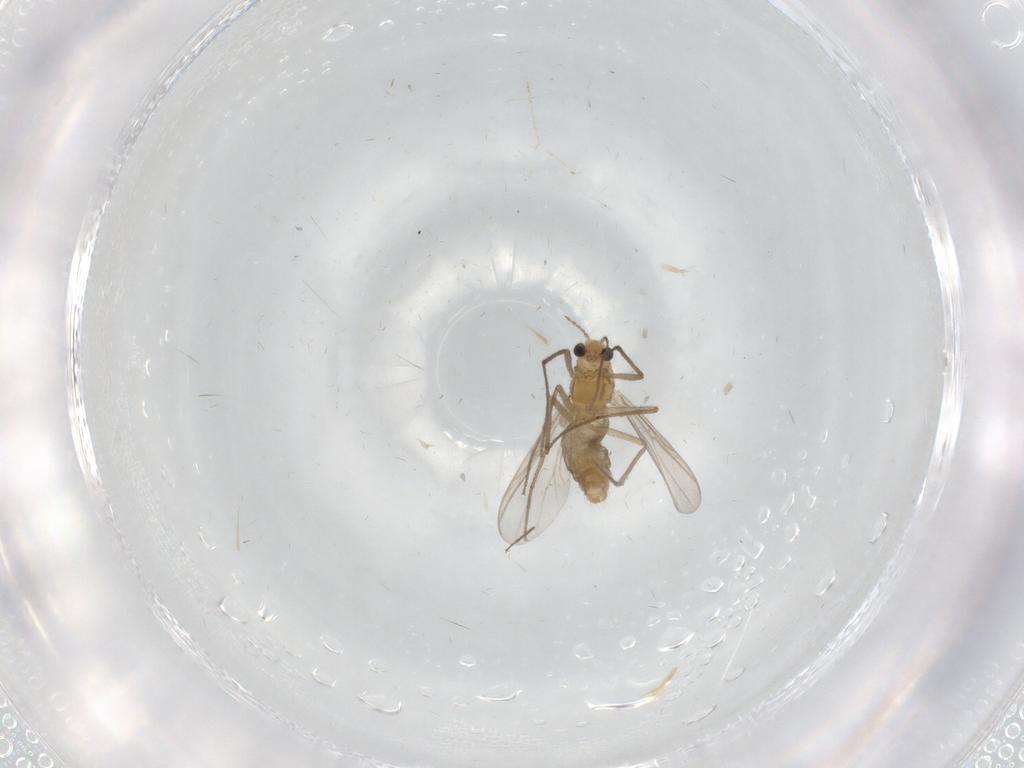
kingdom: Animalia
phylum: Arthropoda
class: Insecta
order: Diptera
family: Chironomidae
